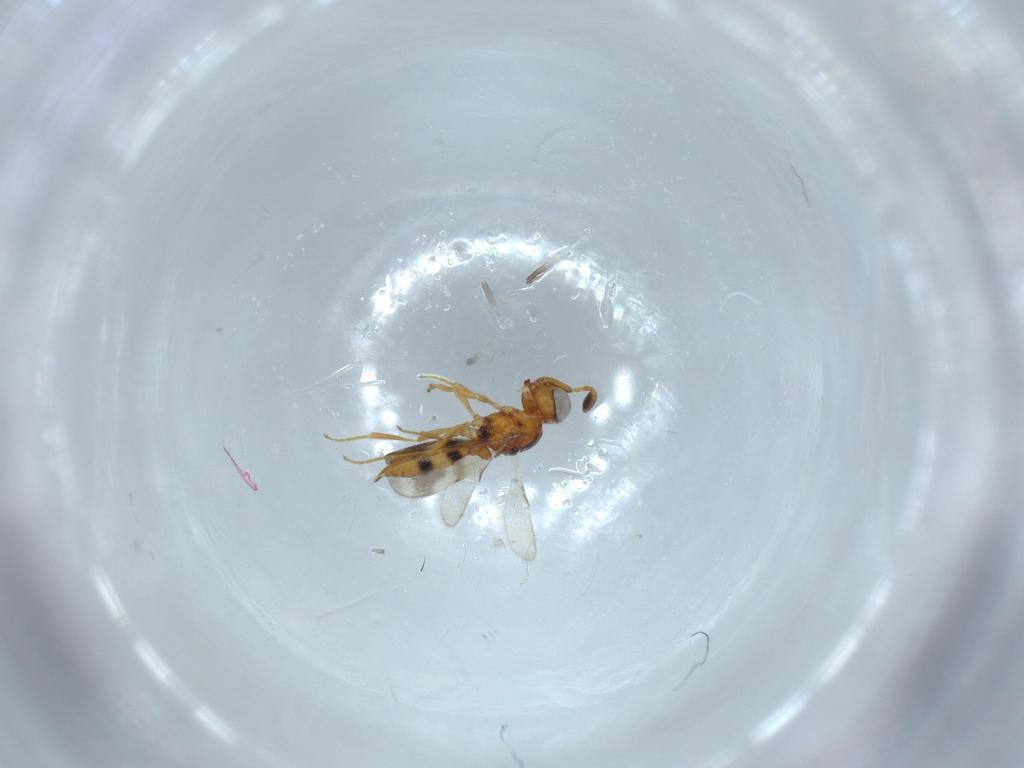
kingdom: Animalia
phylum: Arthropoda
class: Insecta
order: Hymenoptera
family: Scelionidae
